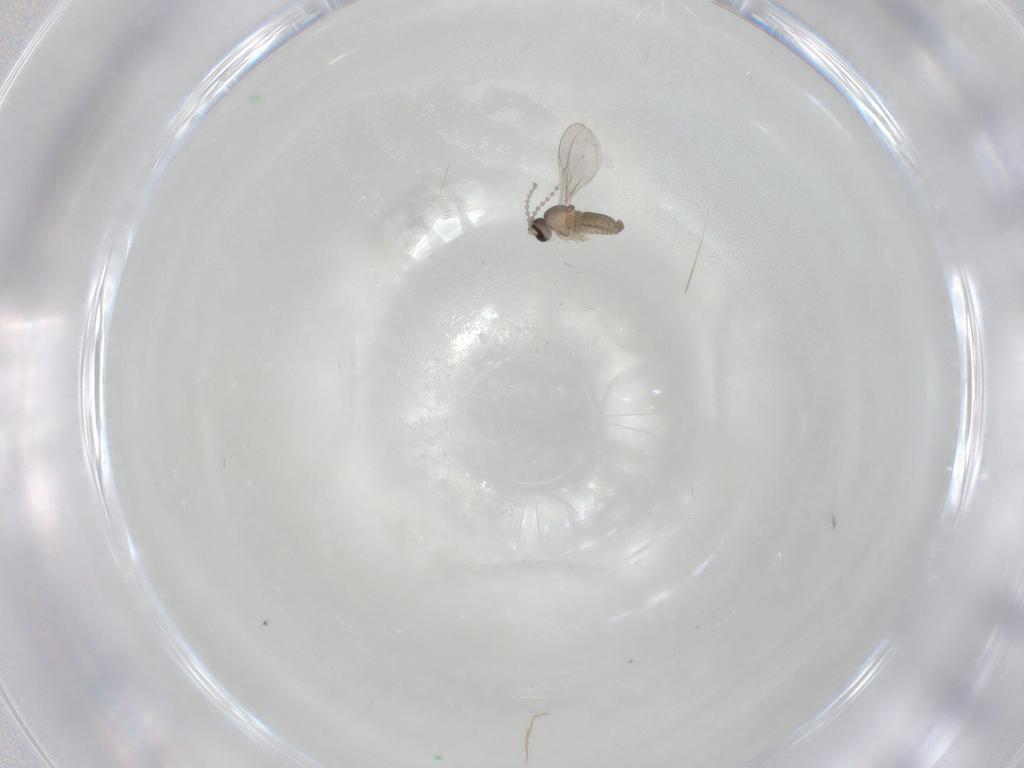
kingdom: Animalia
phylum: Arthropoda
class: Insecta
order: Diptera
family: Cecidomyiidae
